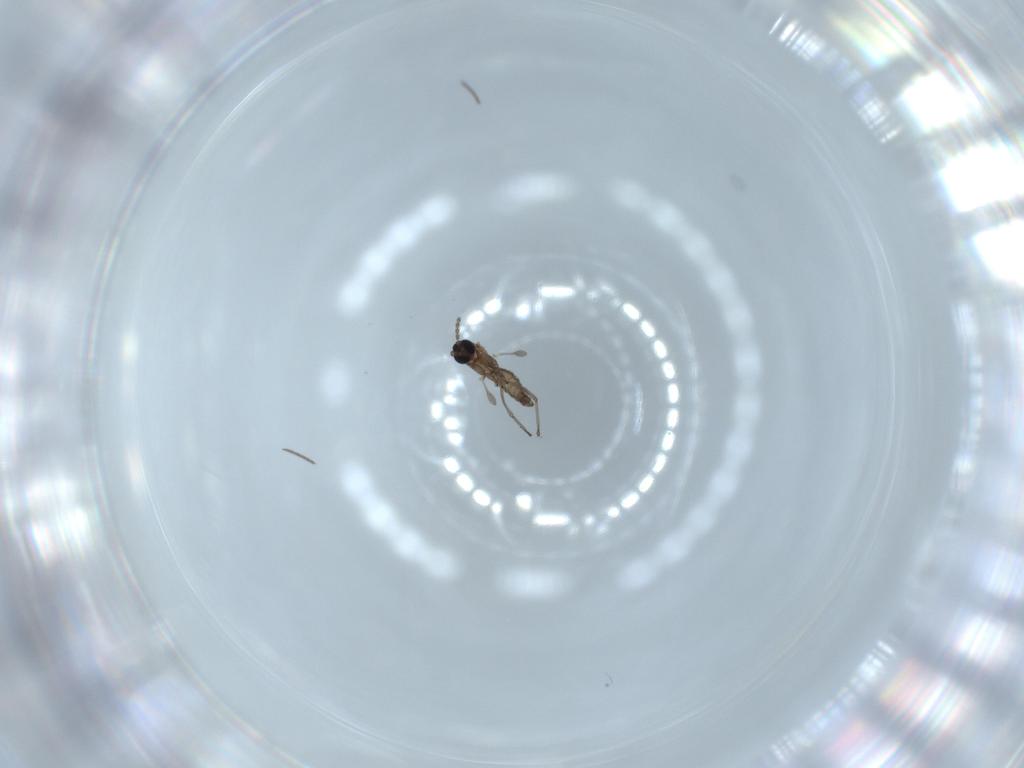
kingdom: Animalia
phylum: Arthropoda
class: Insecta
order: Diptera
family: Sciaridae
